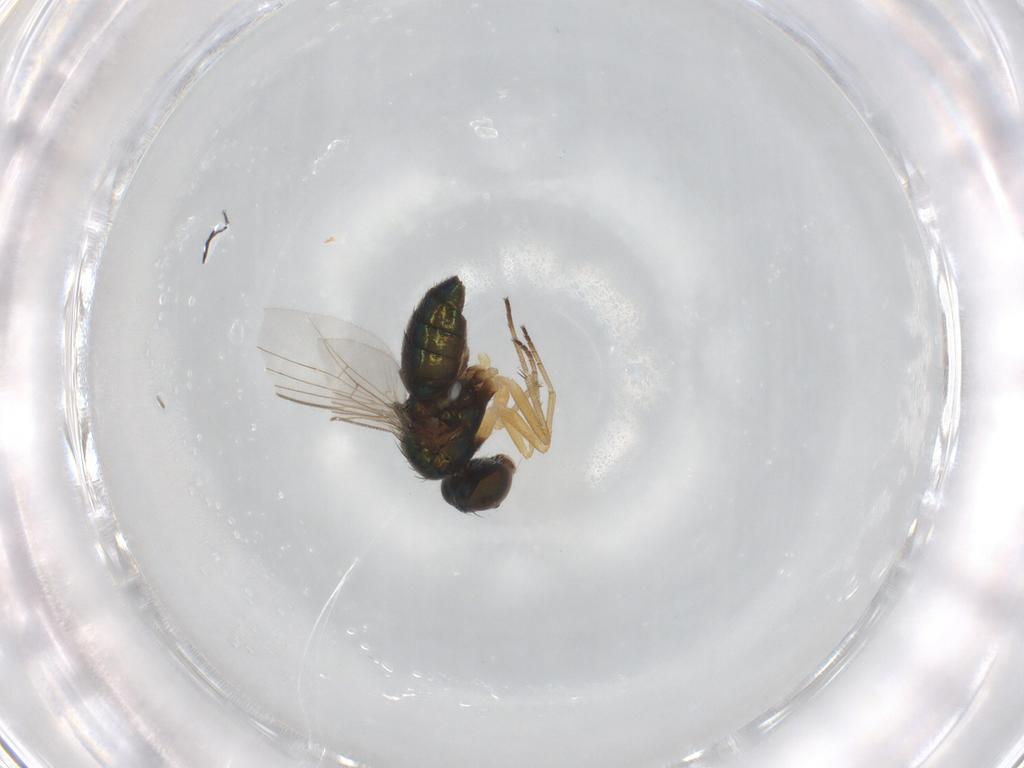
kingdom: Animalia
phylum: Arthropoda
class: Insecta
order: Diptera
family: Dolichopodidae
